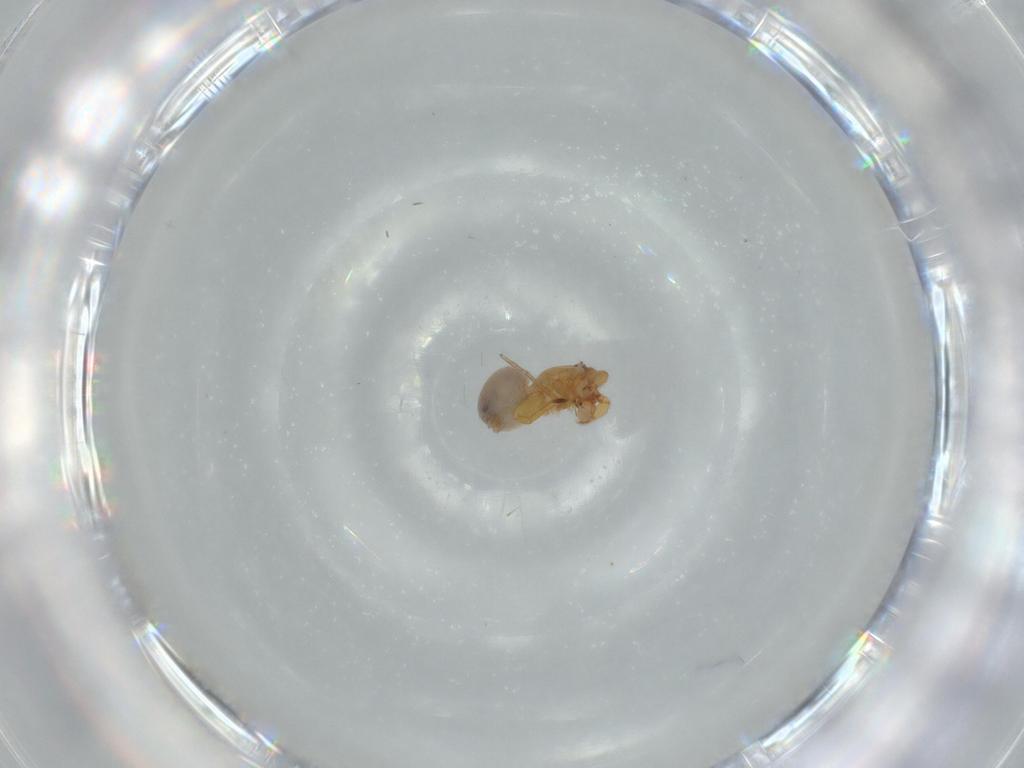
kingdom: Animalia
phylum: Arthropoda
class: Arachnida
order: Araneae
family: Oonopidae
